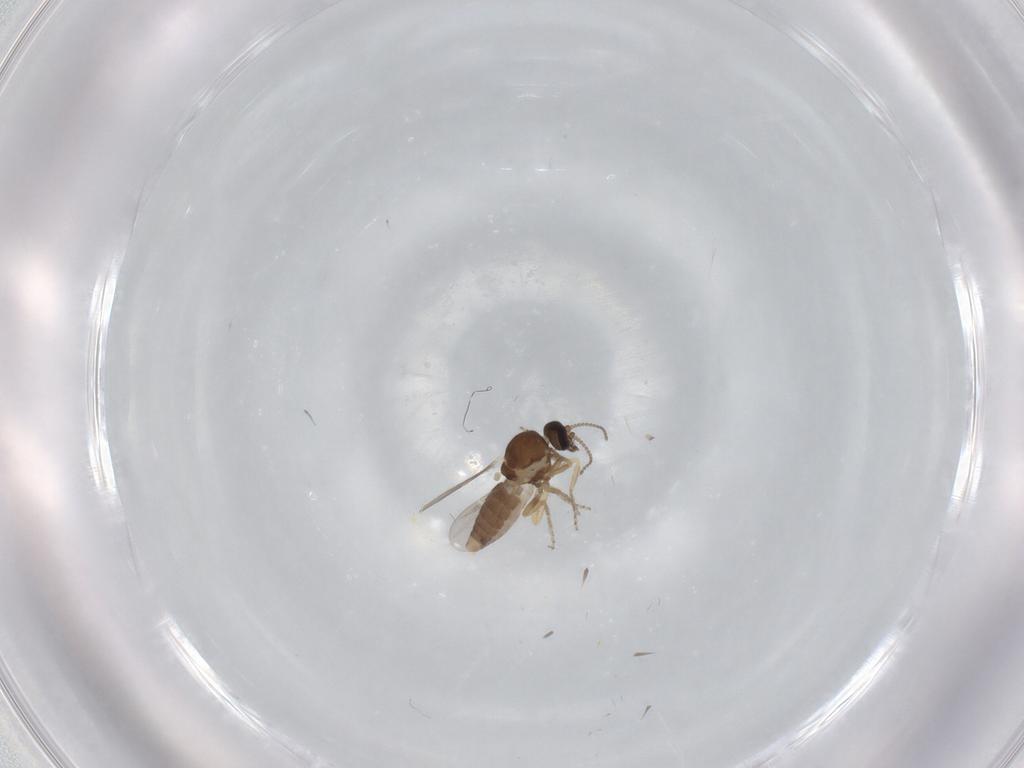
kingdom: Animalia
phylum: Arthropoda
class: Insecta
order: Diptera
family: Ceratopogonidae
